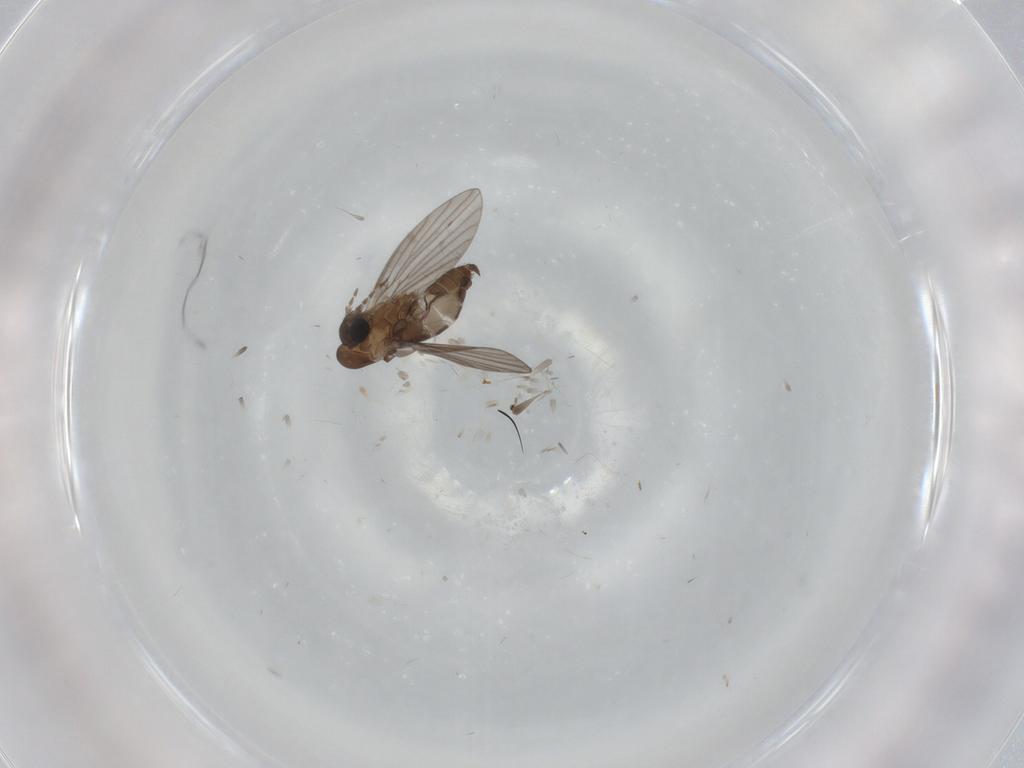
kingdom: Animalia
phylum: Arthropoda
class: Insecta
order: Diptera
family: Psychodidae
